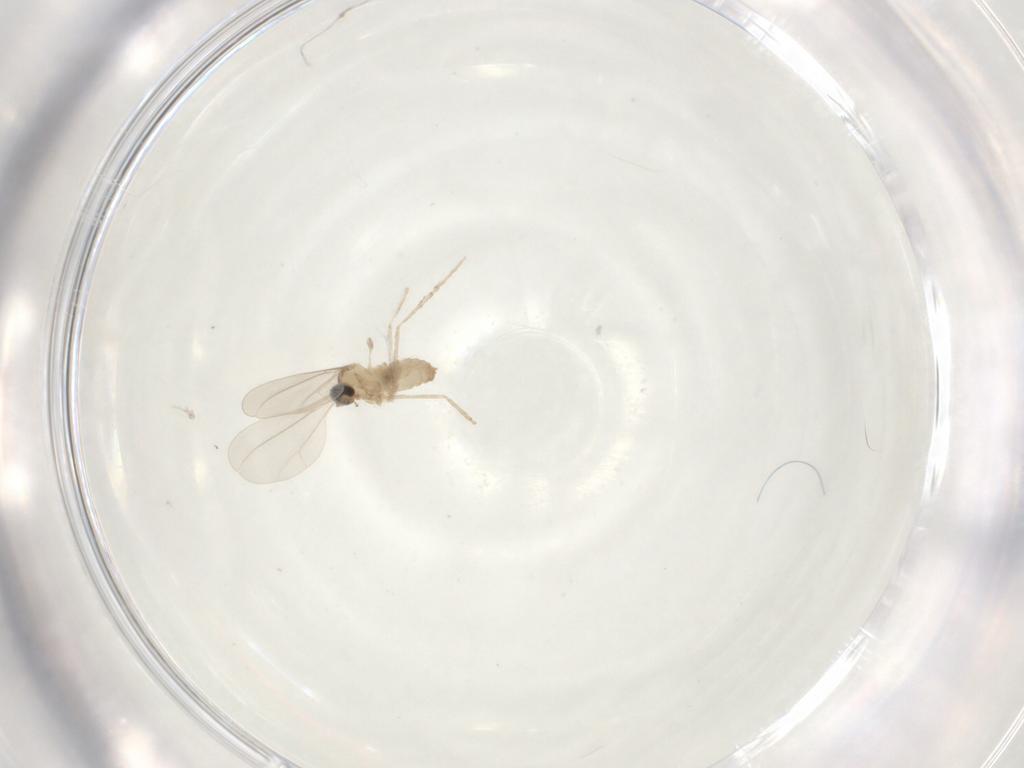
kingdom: Animalia
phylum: Arthropoda
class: Insecta
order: Diptera
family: Cecidomyiidae
